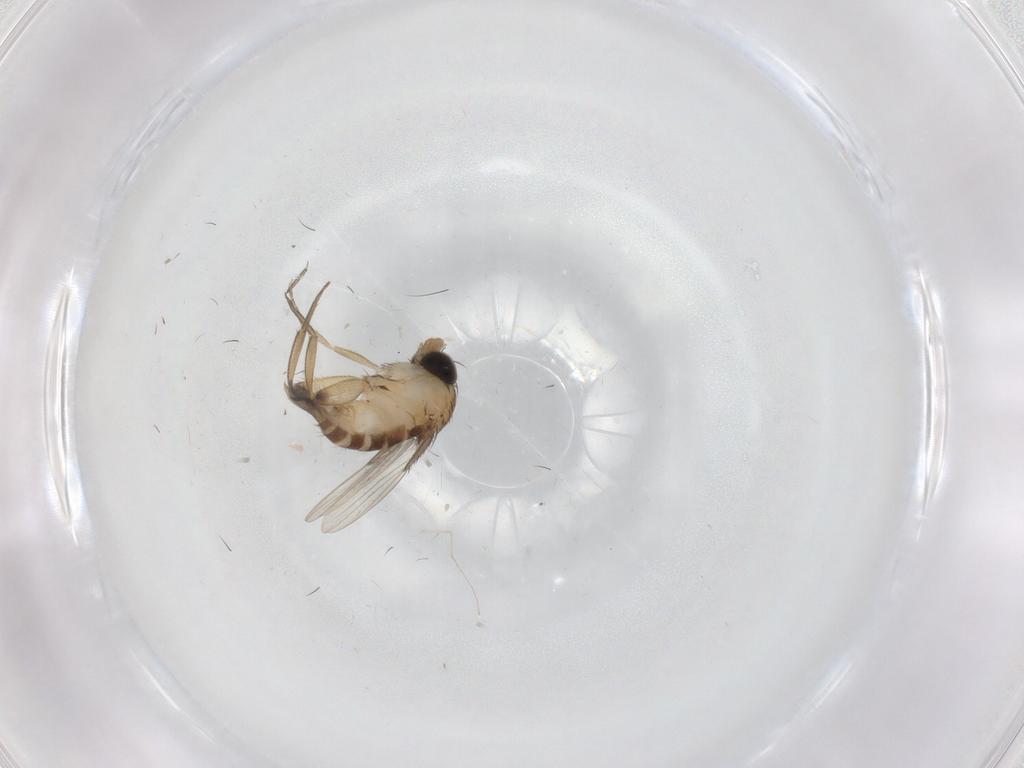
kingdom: Animalia
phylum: Arthropoda
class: Insecta
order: Diptera
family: Phoridae
